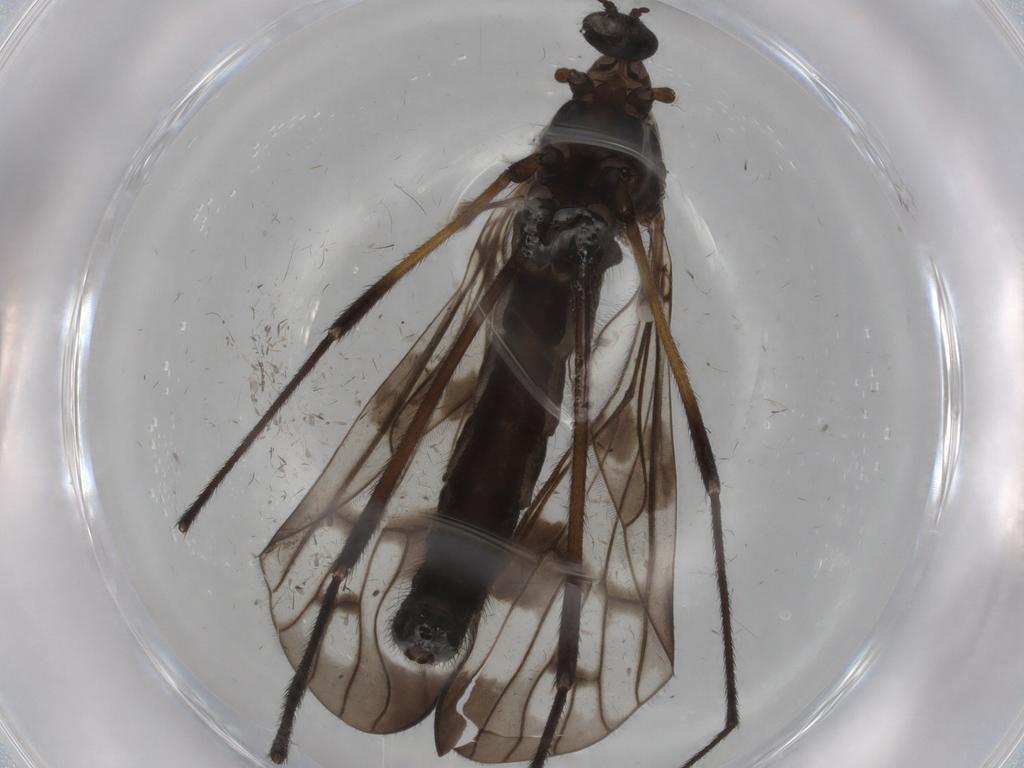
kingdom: Animalia
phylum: Arthropoda
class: Insecta
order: Diptera
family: Limoniidae
